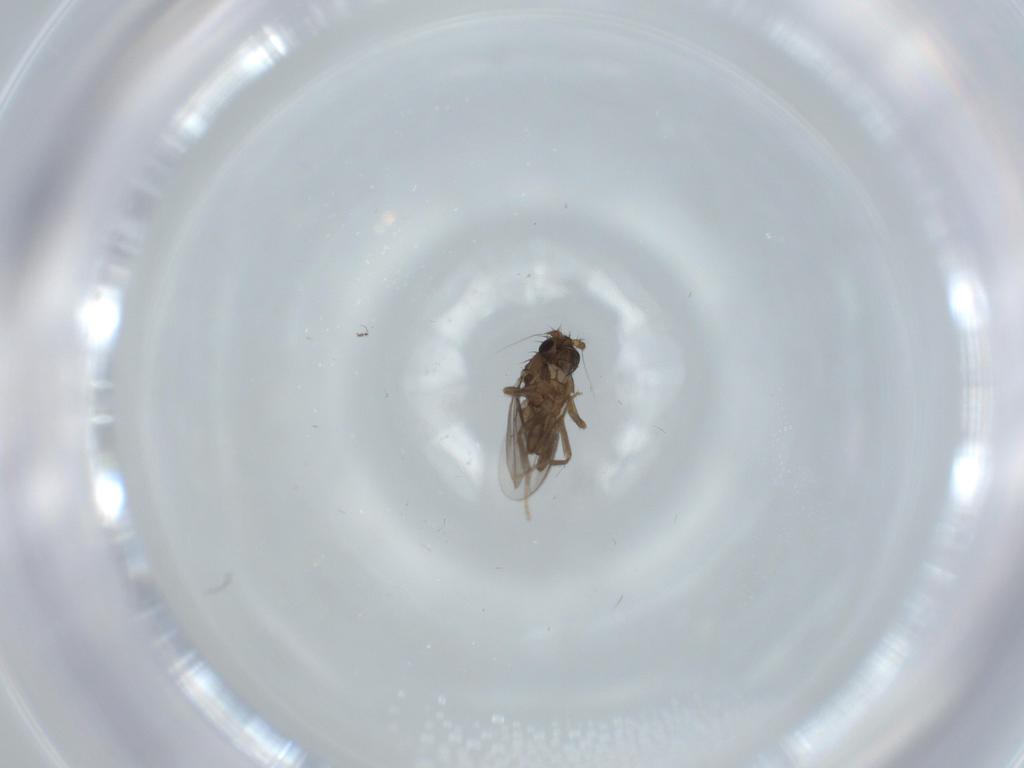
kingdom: Animalia
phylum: Arthropoda
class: Insecta
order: Diptera
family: Sphaeroceridae
